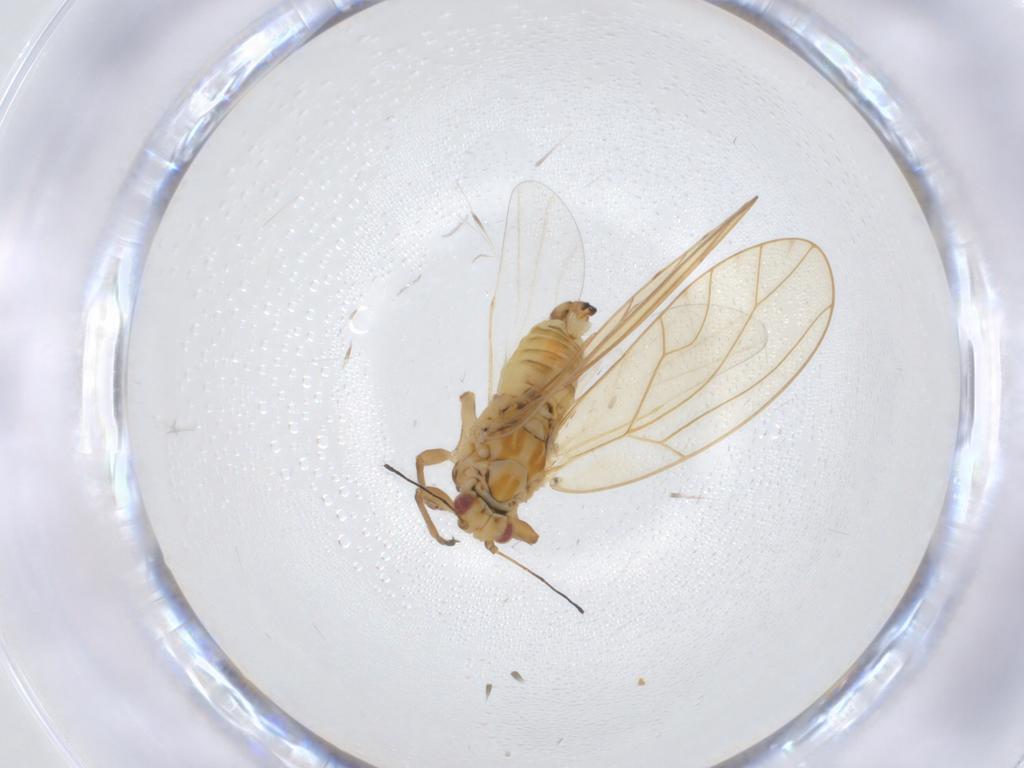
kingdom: Animalia
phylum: Arthropoda
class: Insecta
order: Hemiptera
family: Triozidae
